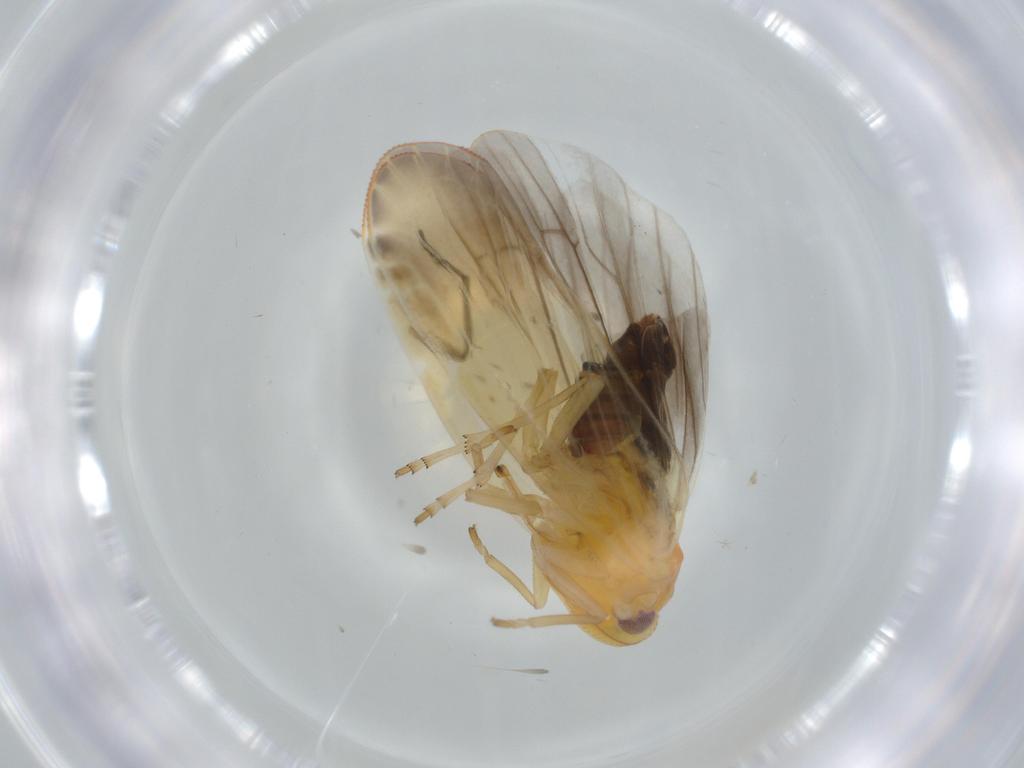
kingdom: Animalia
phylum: Arthropoda
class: Insecta
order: Hemiptera
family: Derbidae
